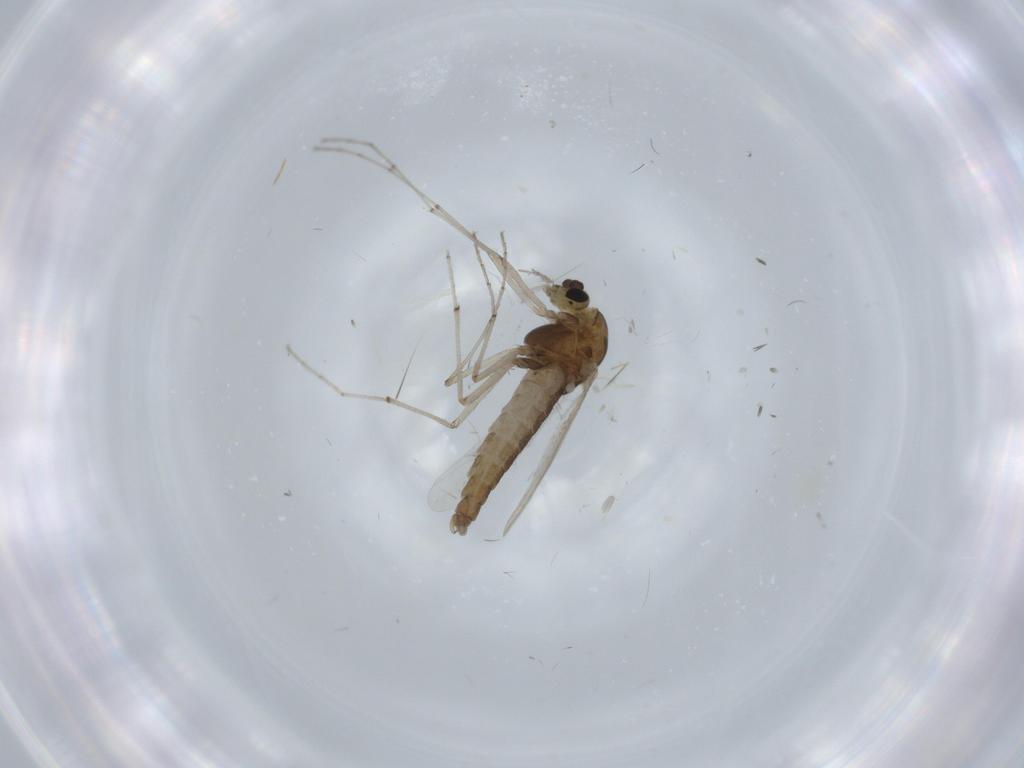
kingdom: Animalia
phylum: Arthropoda
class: Insecta
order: Diptera
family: Chironomidae
